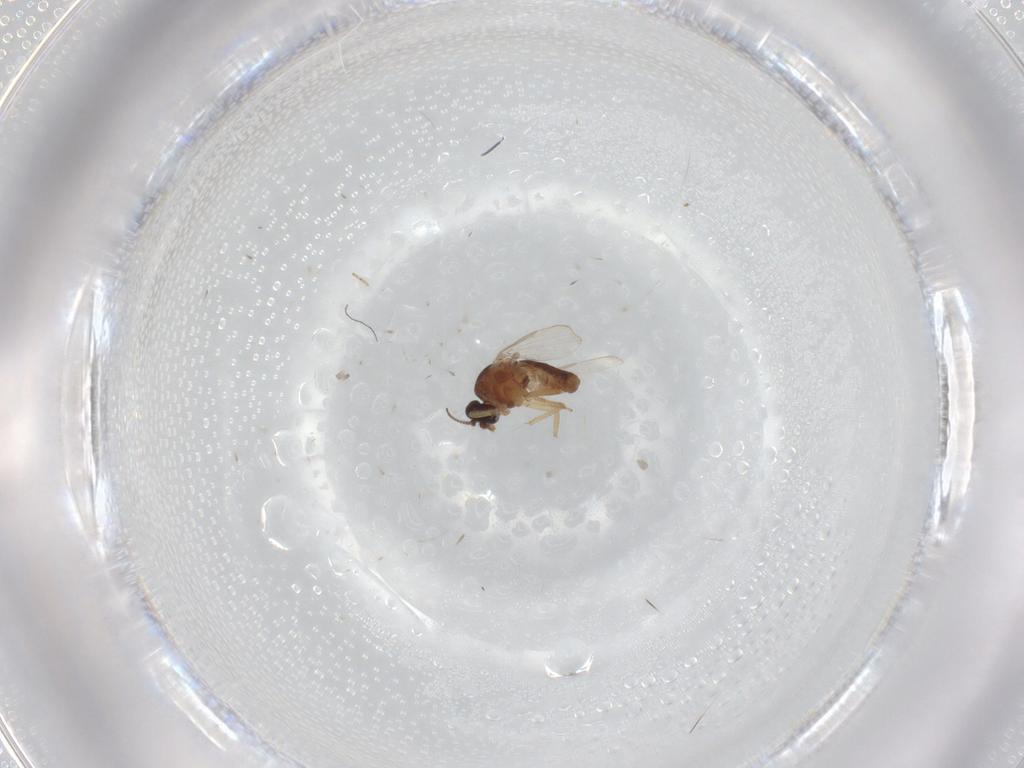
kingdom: Animalia
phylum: Arthropoda
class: Insecta
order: Diptera
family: Ceratopogonidae
